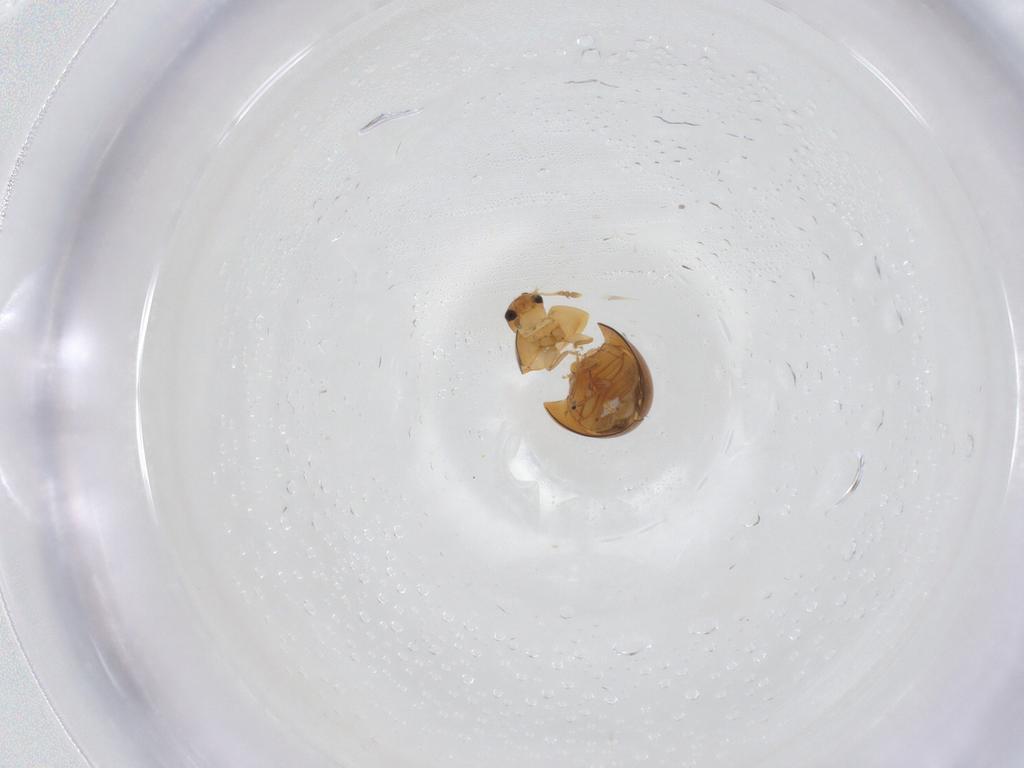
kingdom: Animalia
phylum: Arthropoda
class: Insecta
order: Coleoptera
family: Phalacridae
